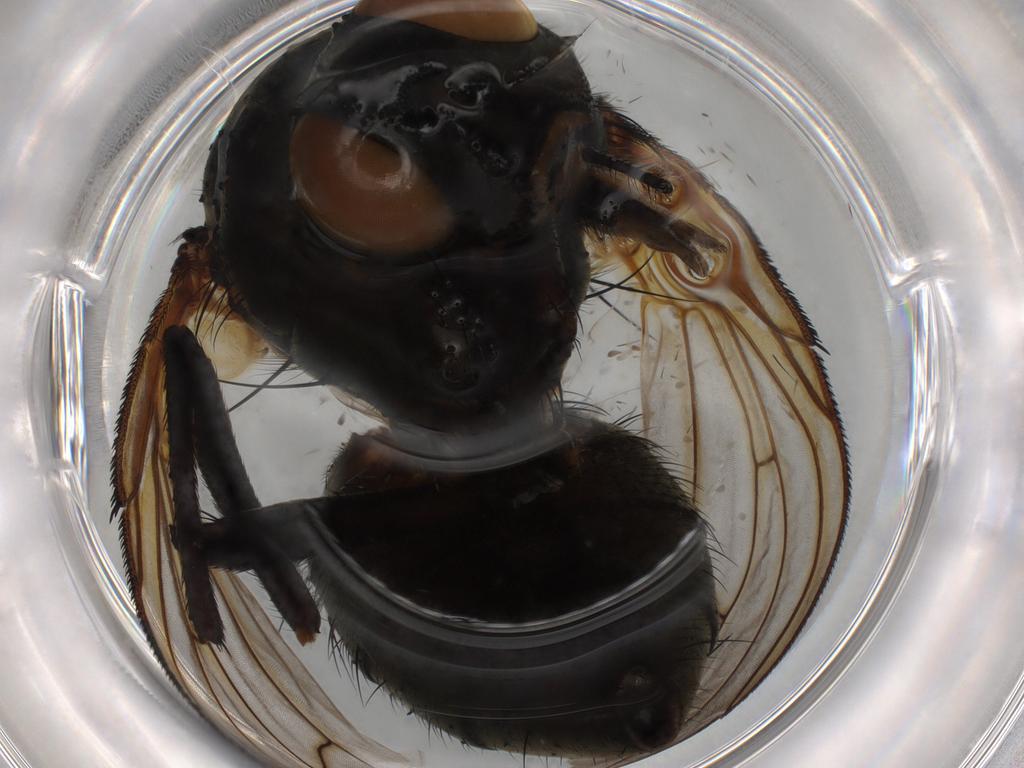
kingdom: Animalia
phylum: Arthropoda
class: Insecta
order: Diptera
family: Muscidae
